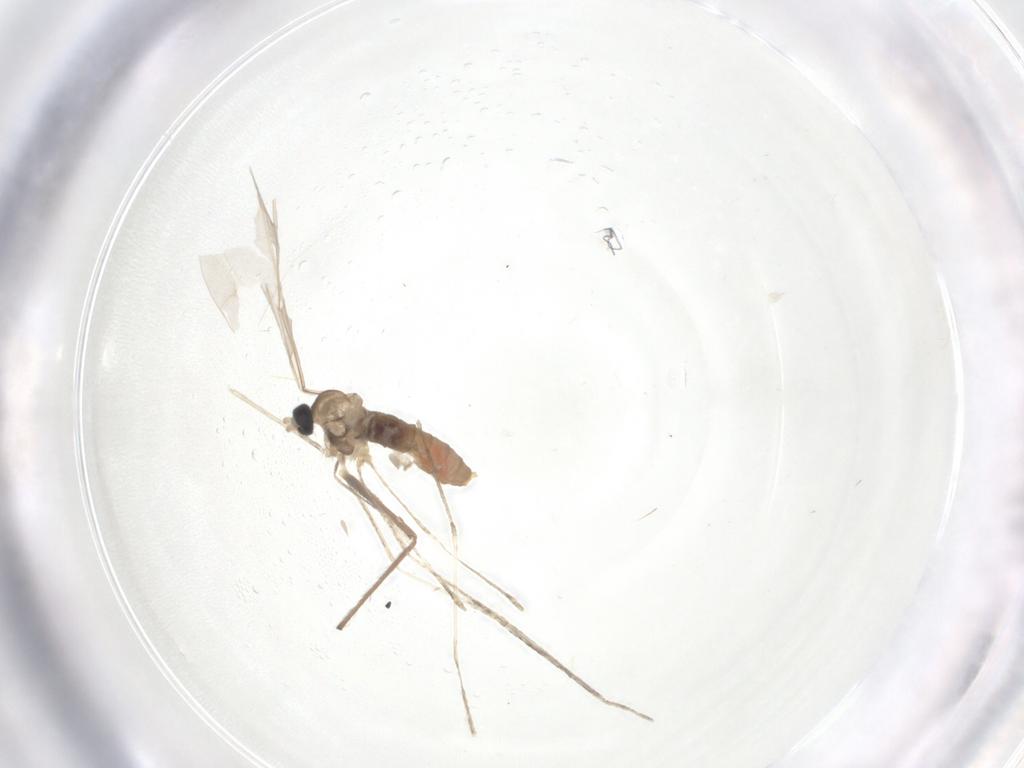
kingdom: Animalia
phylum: Arthropoda
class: Insecta
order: Diptera
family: Cecidomyiidae
